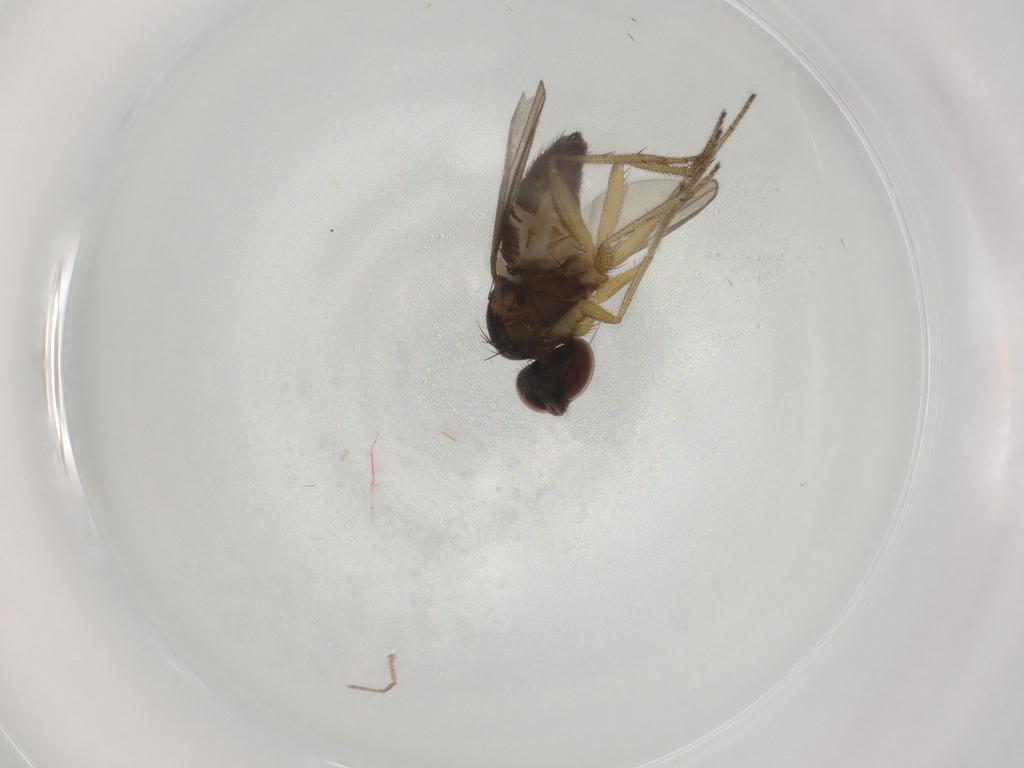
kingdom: Animalia
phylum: Arthropoda
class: Insecta
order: Diptera
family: Dolichopodidae
